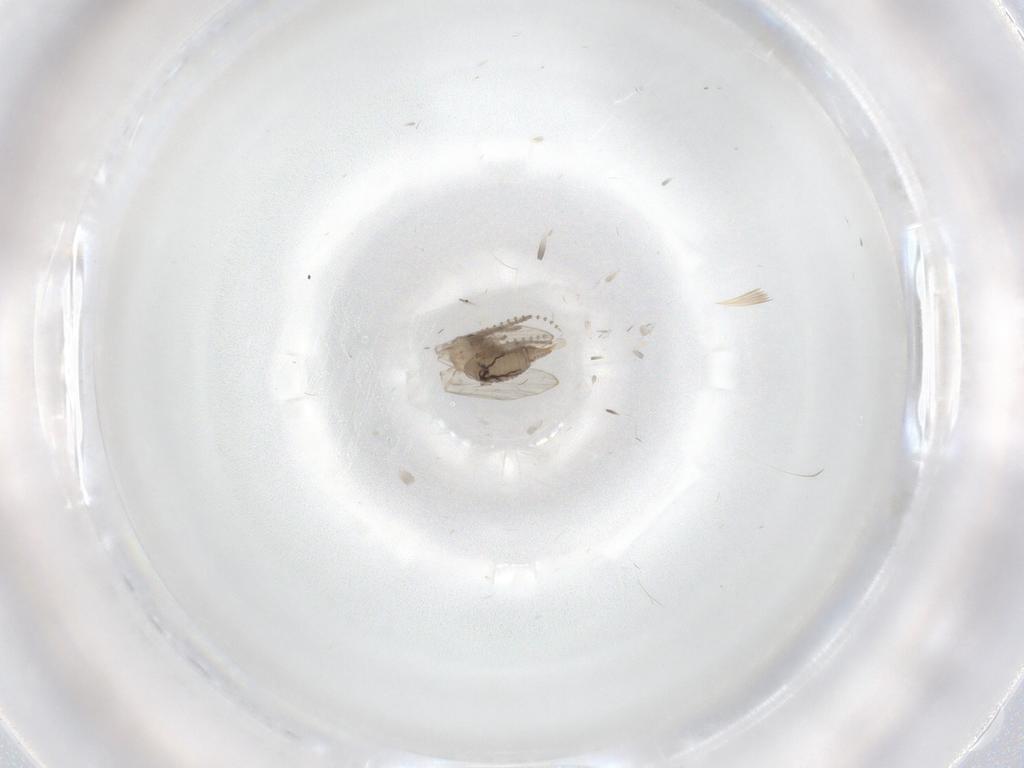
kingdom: Animalia
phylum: Arthropoda
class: Insecta
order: Diptera
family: Psychodidae
